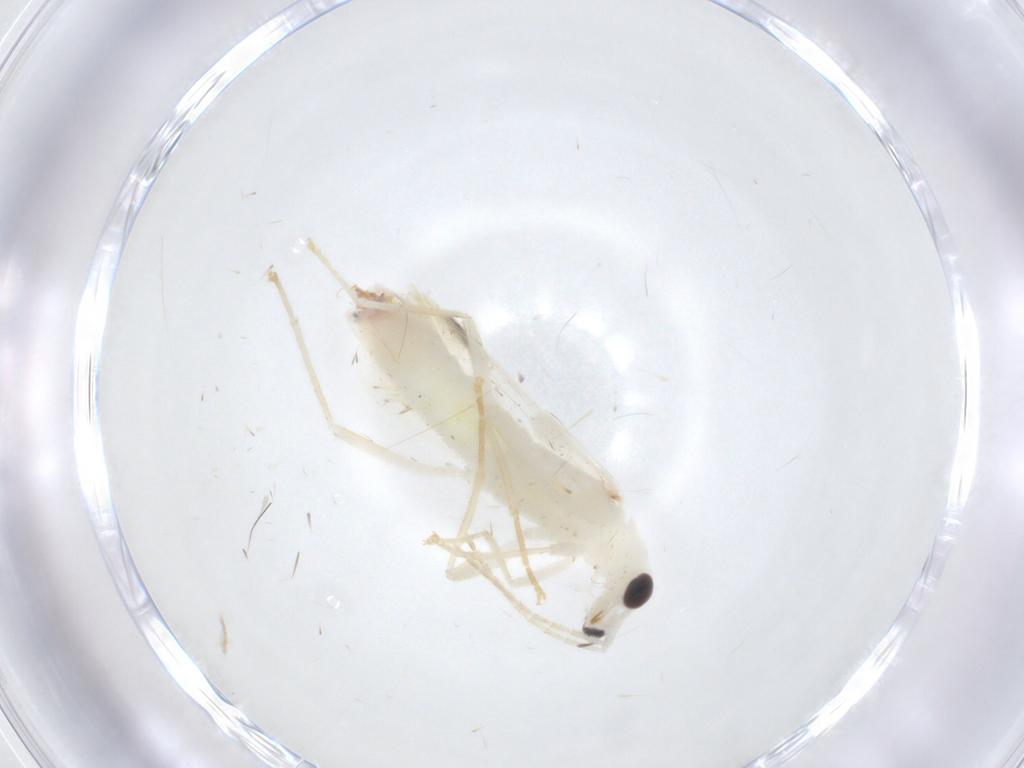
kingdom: Animalia
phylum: Arthropoda
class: Insecta
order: Coleoptera
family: Cantharidae
